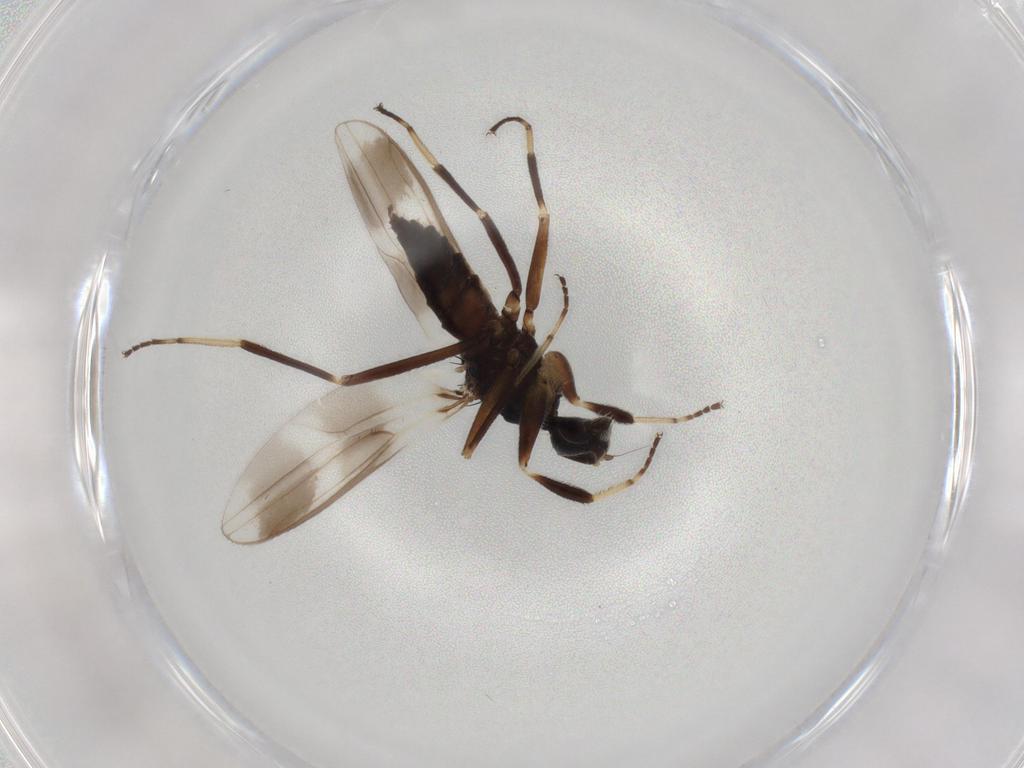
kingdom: Animalia
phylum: Arthropoda
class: Insecta
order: Diptera
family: Hybotidae
